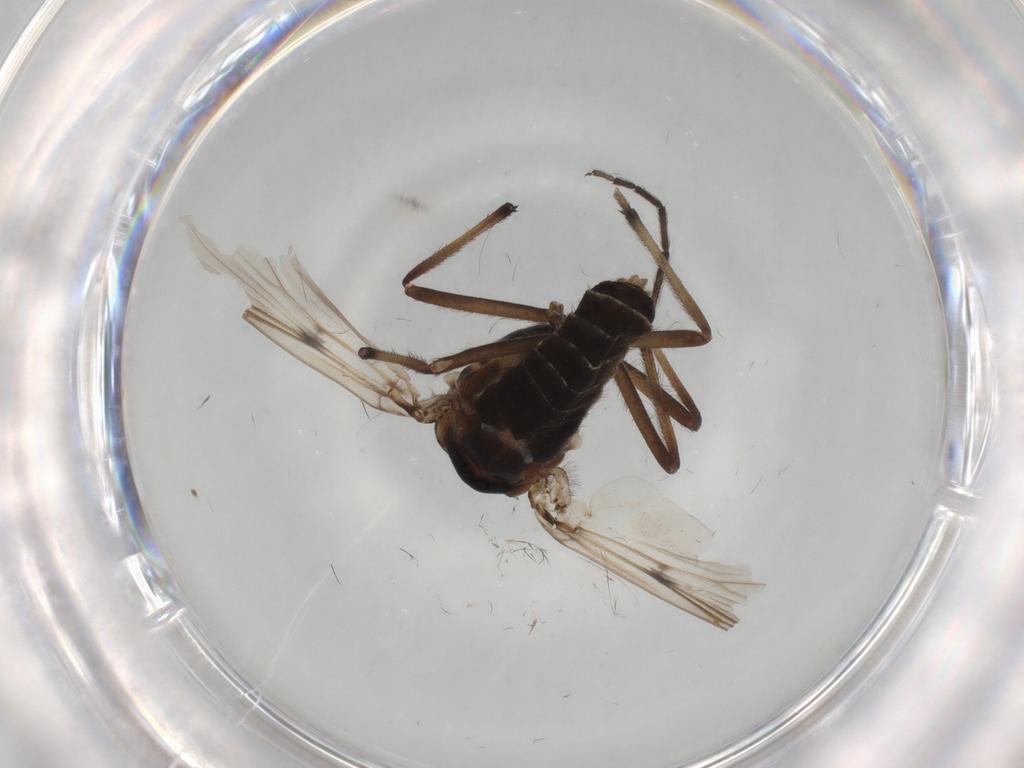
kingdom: Animalia
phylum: Arthropoda
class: Insecta
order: Diptera
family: Chironomidae
